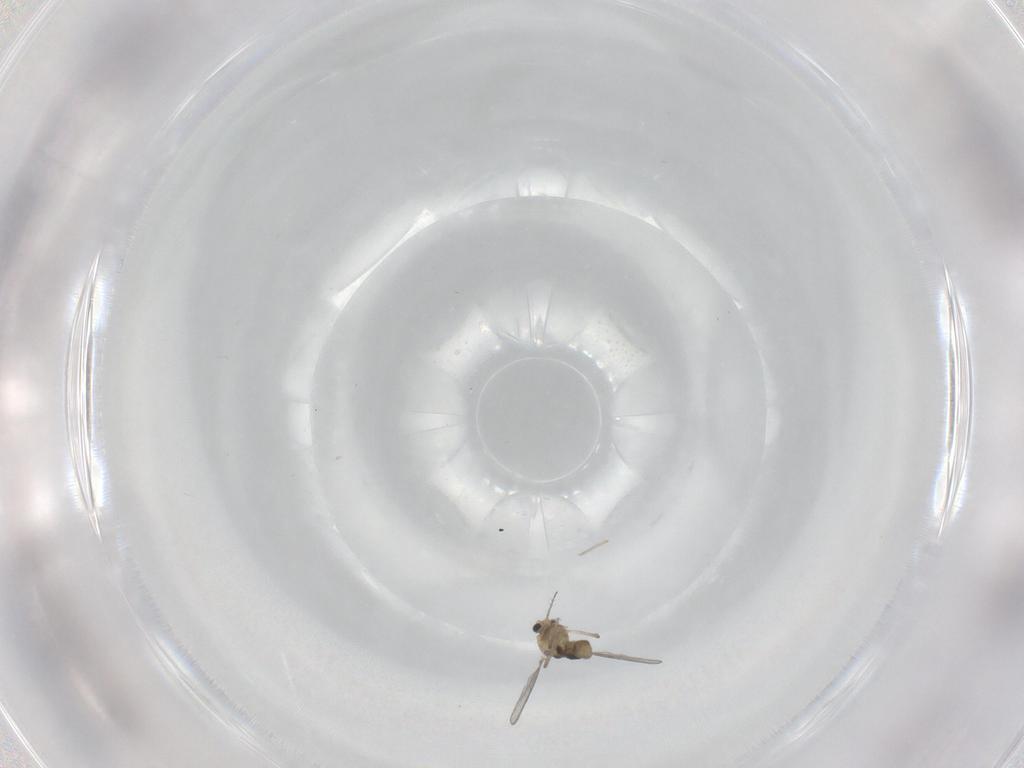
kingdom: Animalia
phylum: Arthropoda
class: Insecta
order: Diptera
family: Chironomidae
